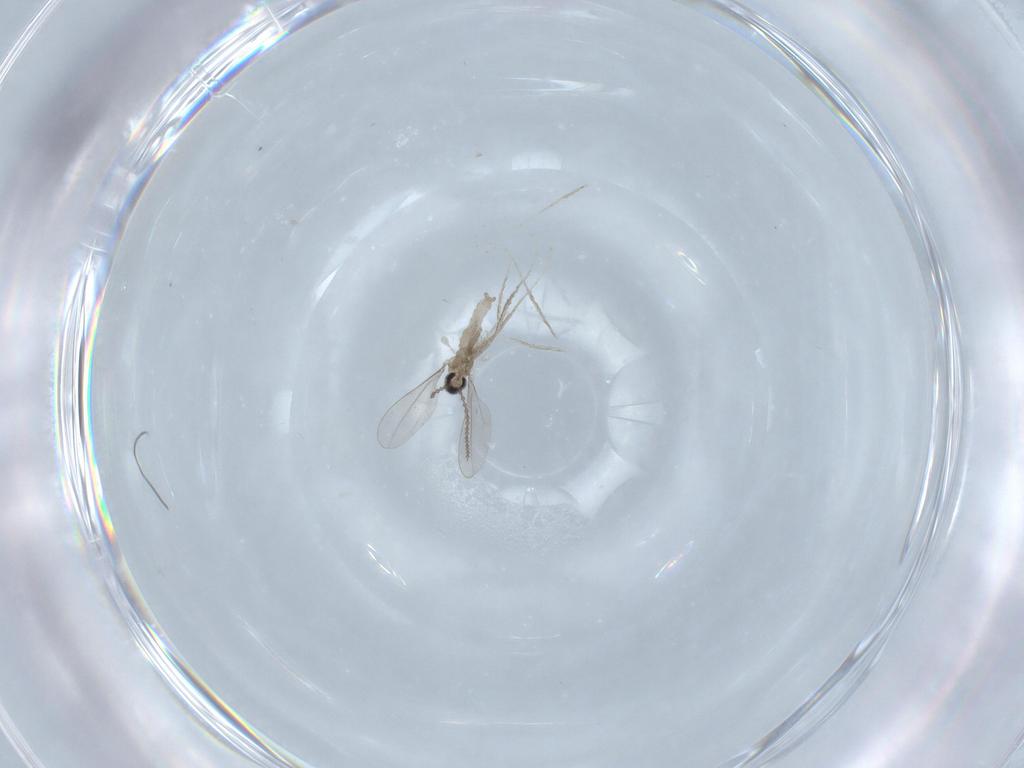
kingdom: Animalia
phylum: Arthropoda
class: Insecta
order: Diptera
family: Cecidomyiidae
